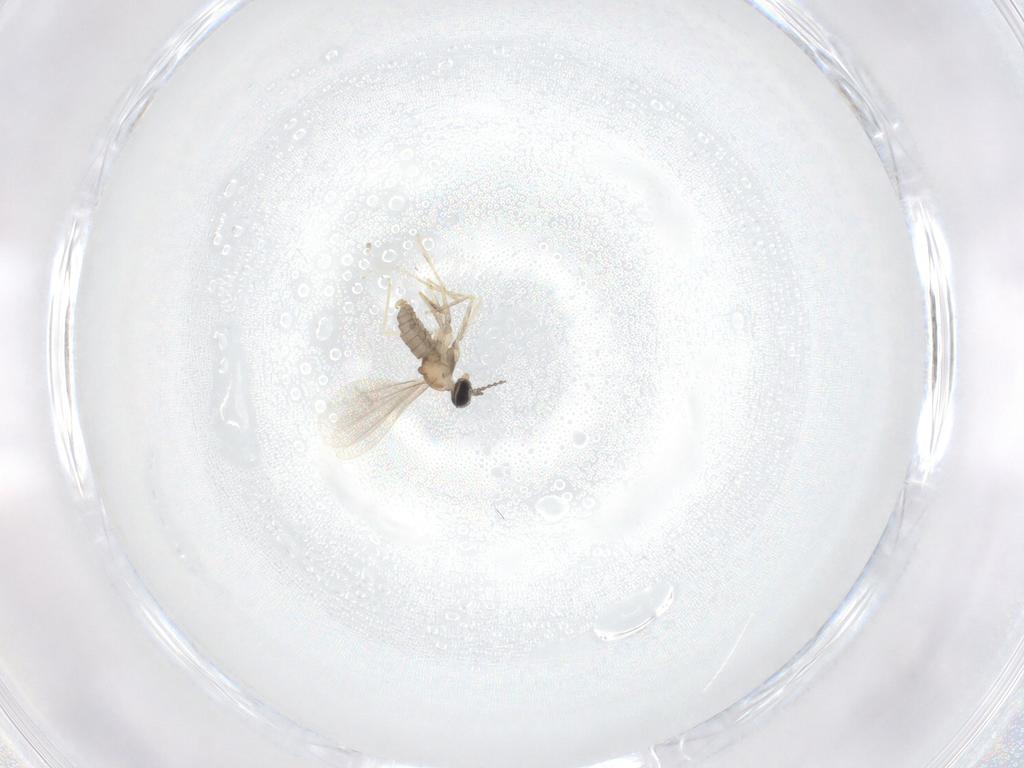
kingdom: Animalia
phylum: Arthropoda
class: Insecta
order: Diptera
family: Cecidomyiidae
